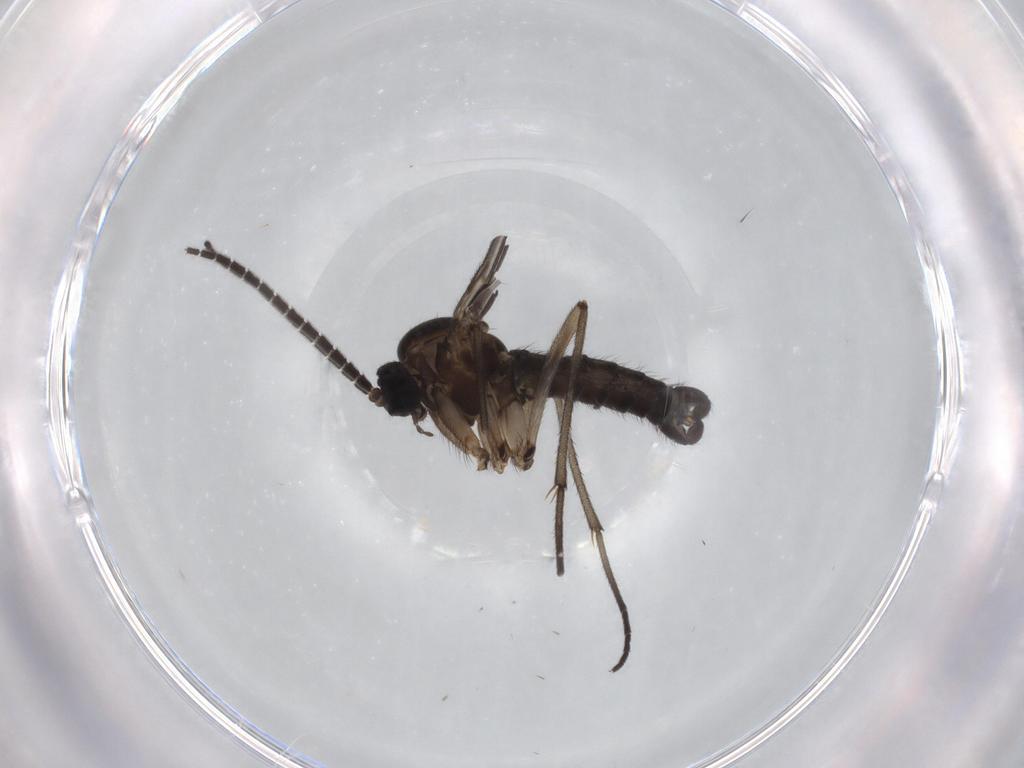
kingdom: Animalia
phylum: Arthropoda
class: Insecta
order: Diptera
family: Sciaridae
